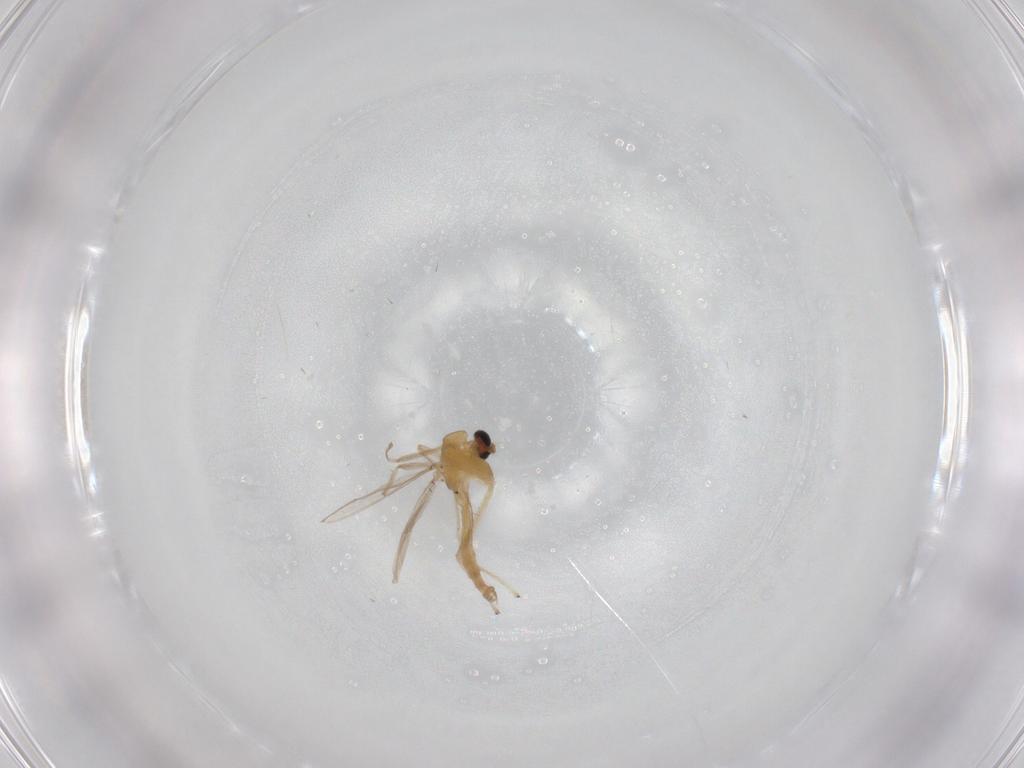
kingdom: Animalia
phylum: Arthropoda
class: Insecta
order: Diptera
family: Chironomidae
